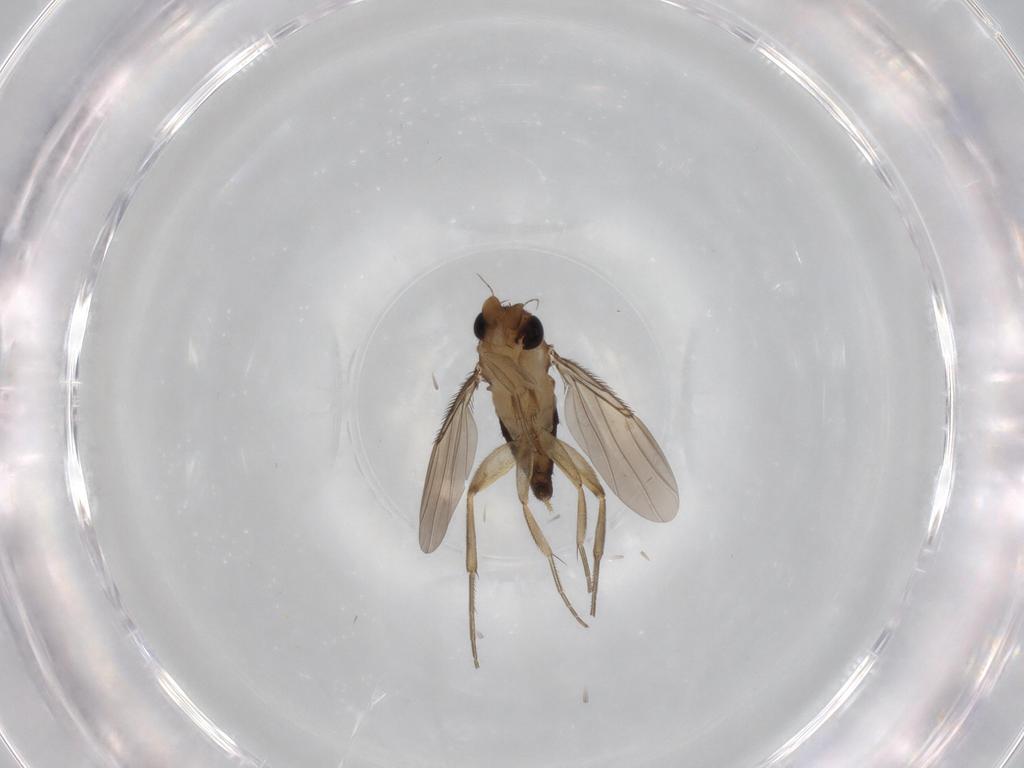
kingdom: Animalia
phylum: Arthropoda
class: Insecta
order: Diptera
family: Phoridae
